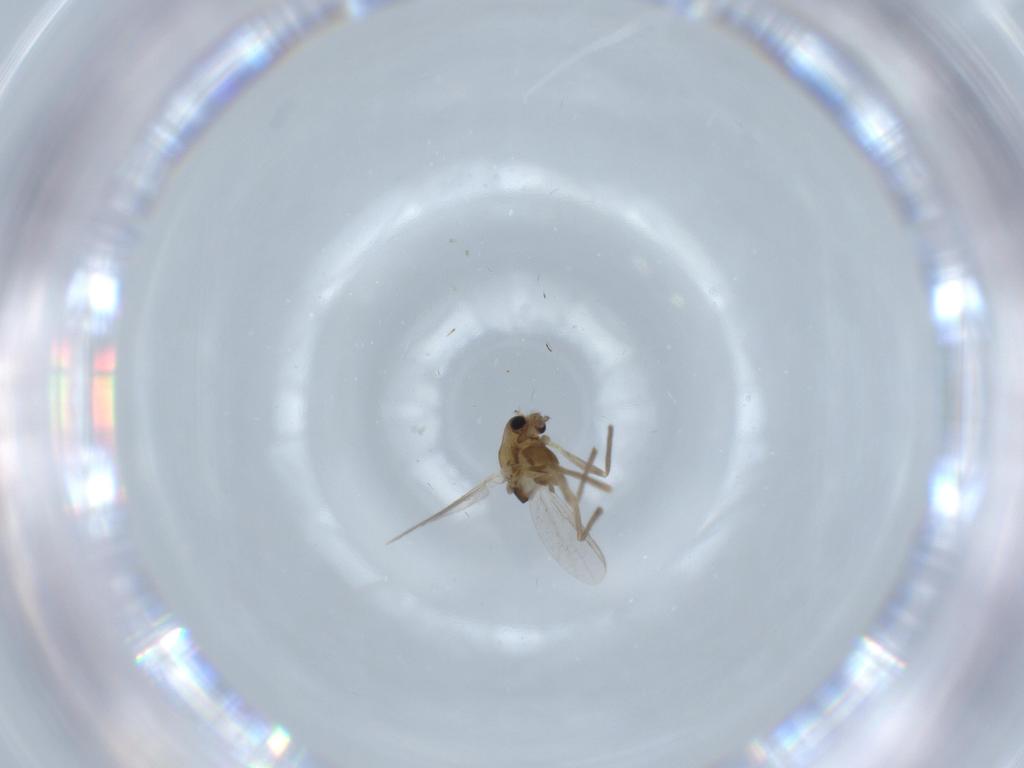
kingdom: Animalia
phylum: Arthropoda
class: Insecta
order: Diptera
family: Chironomidae
